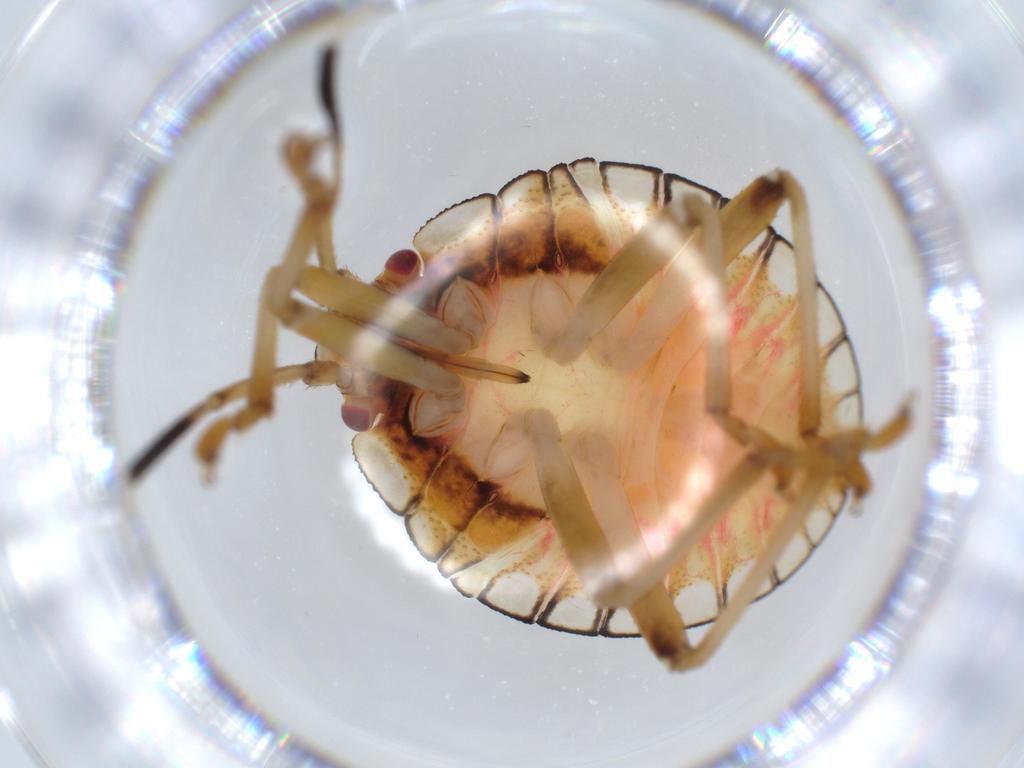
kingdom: Animalia
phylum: Arthropoda
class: Insecta
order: Hemiptera
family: Pentatomidae
